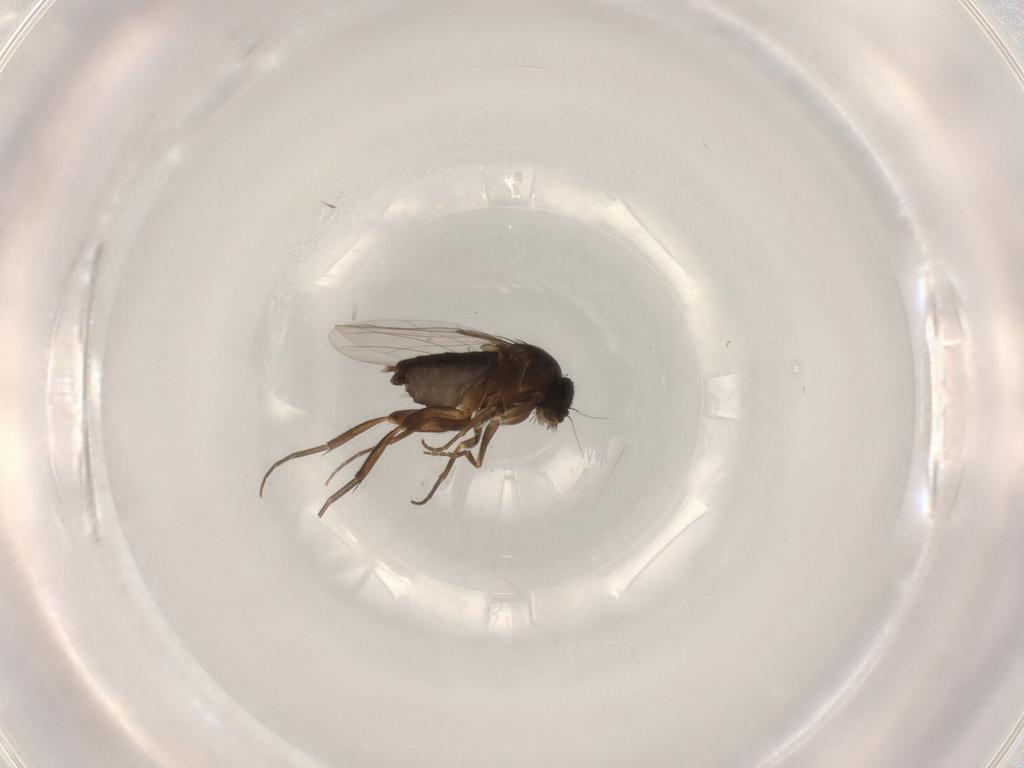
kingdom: Animalia
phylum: Arthropoda
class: Insecta
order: Diptera
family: Phoridae
